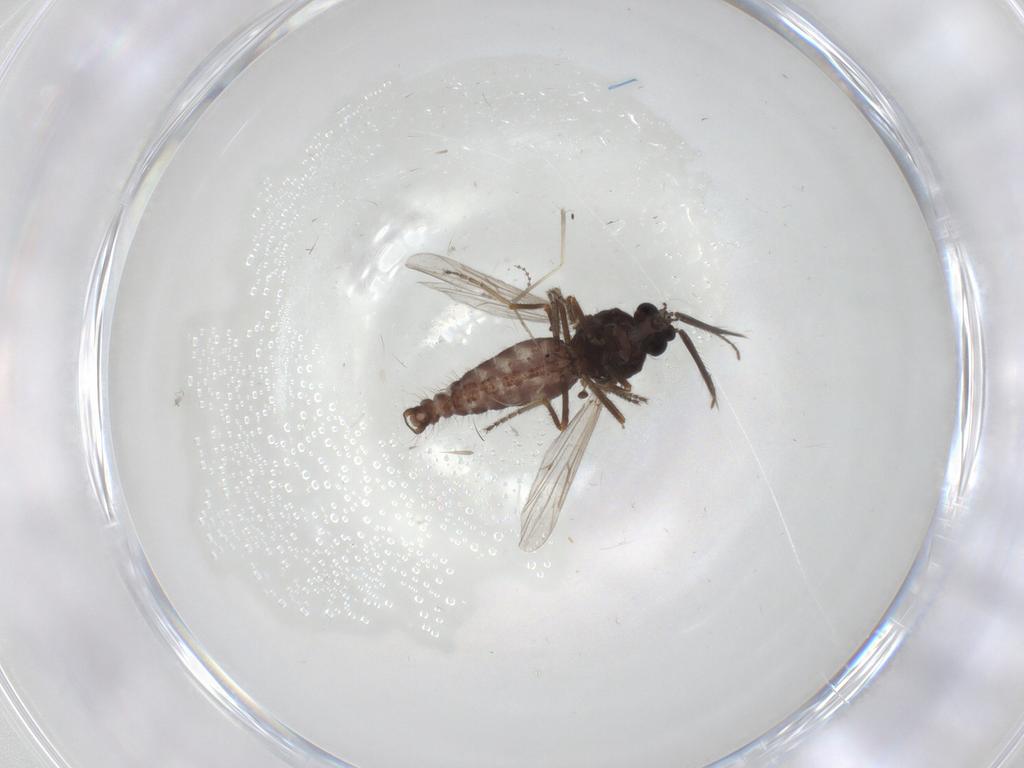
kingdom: Animalia
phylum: Arthropoda
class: Insecta
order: Diptera
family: Ceratopogonidae
